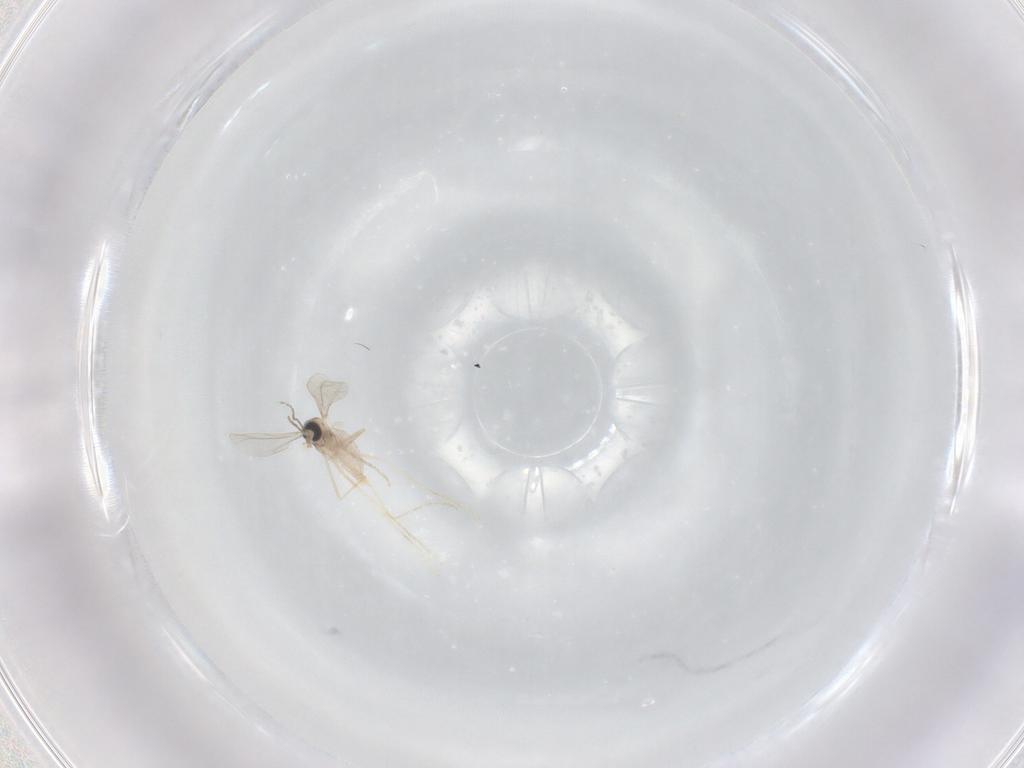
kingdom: Animalia
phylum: Arthropoda
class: Insecta
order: Diptera
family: Cecidomyiidae
